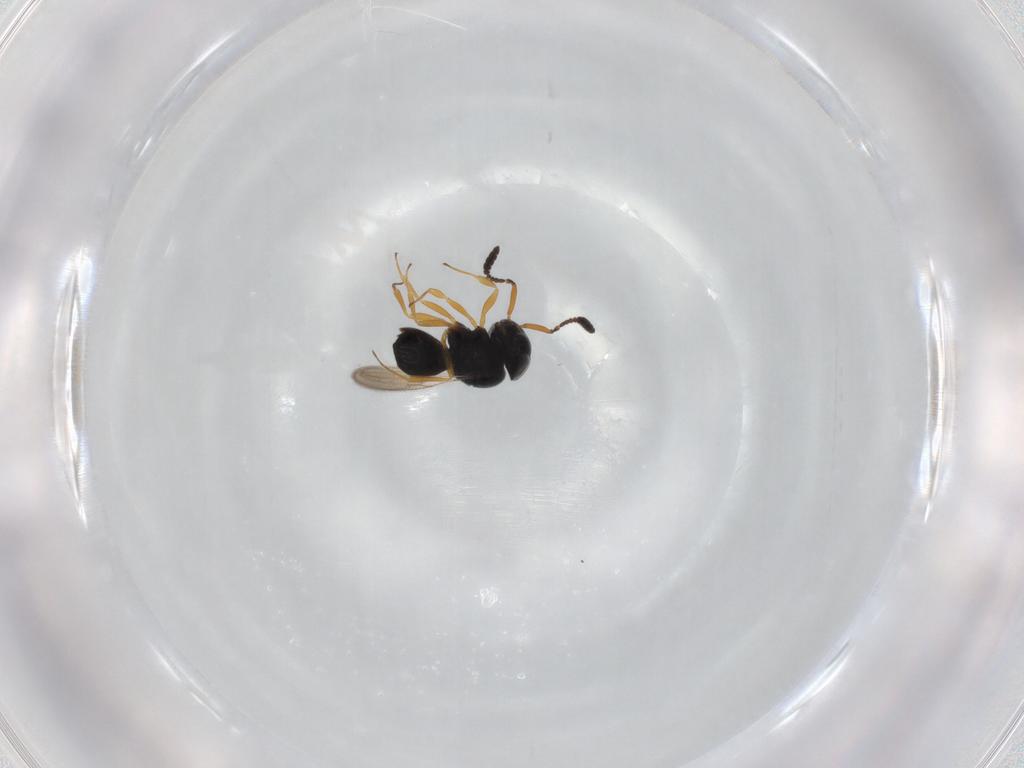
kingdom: Animalia
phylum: Arthropoda
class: Insecta
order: Hymenoptera
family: Scelionidae
